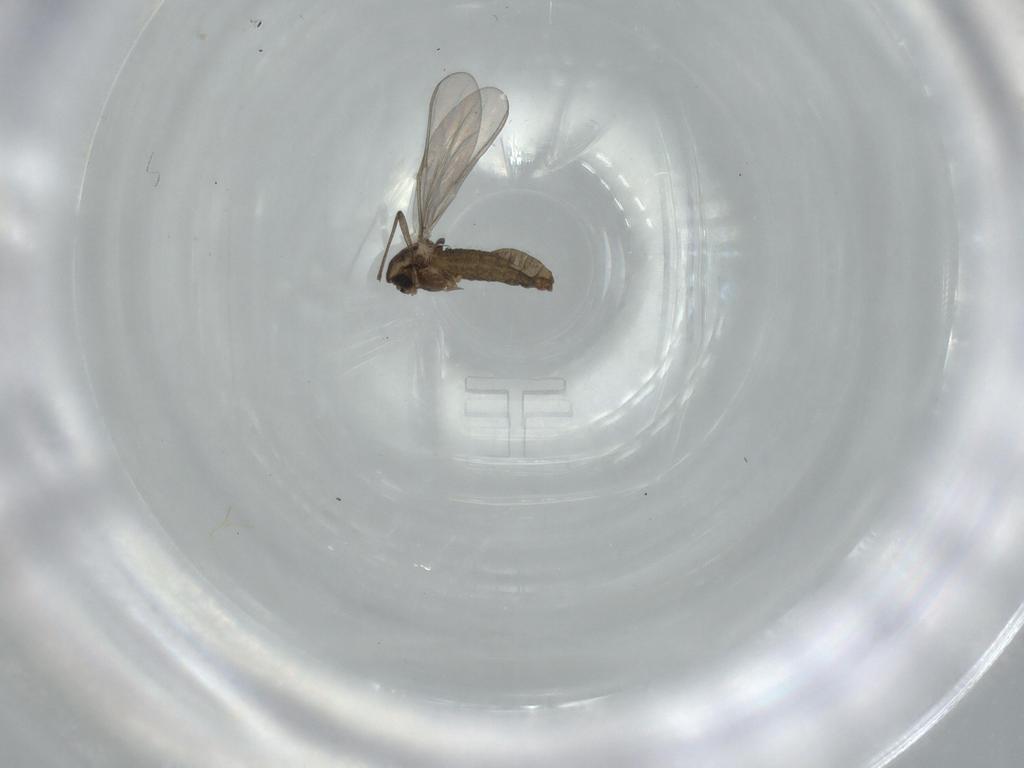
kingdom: Animalia
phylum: Arthropoda
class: Insecta
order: Diptera
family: Chironomidae
